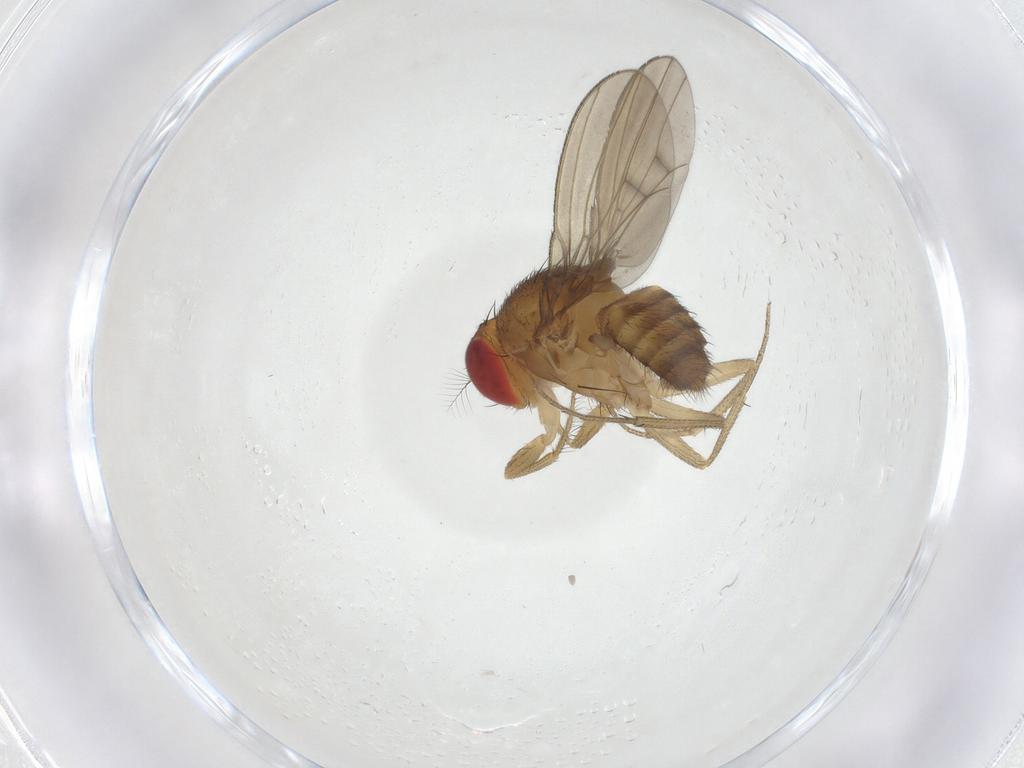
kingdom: Animalia
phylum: Arthropoda
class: Insecta
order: Diptera
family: Drosophilidae
